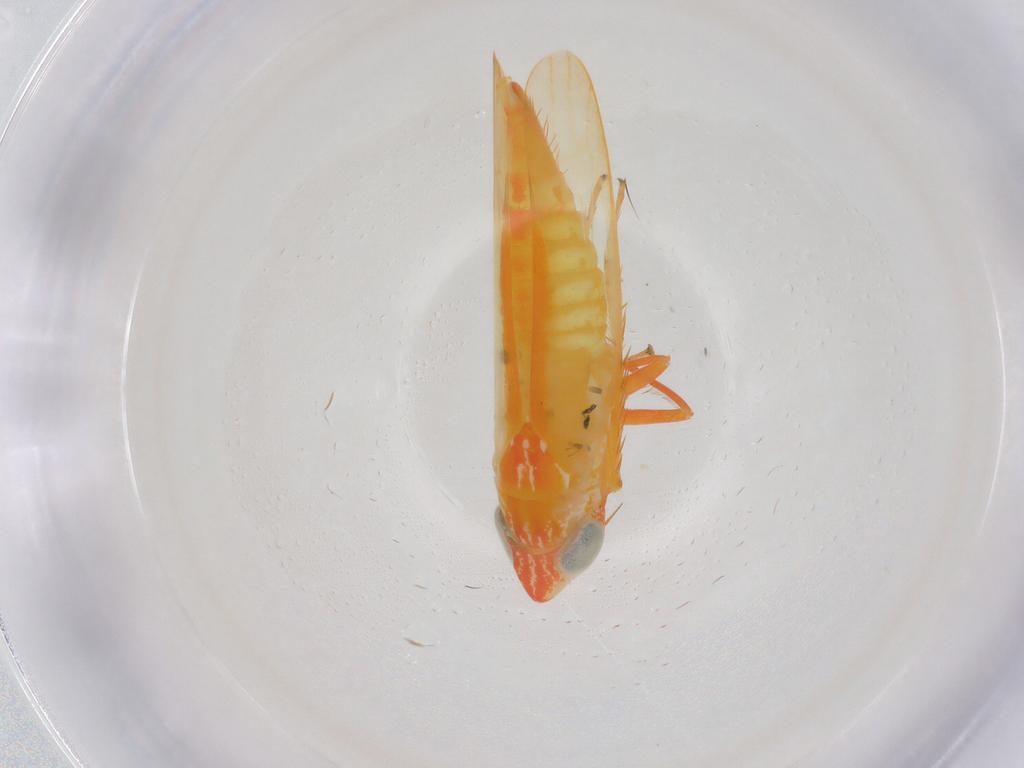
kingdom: Animalia
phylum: Arthropoda
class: Insecta
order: Hemiptera
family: Cicadellidae
